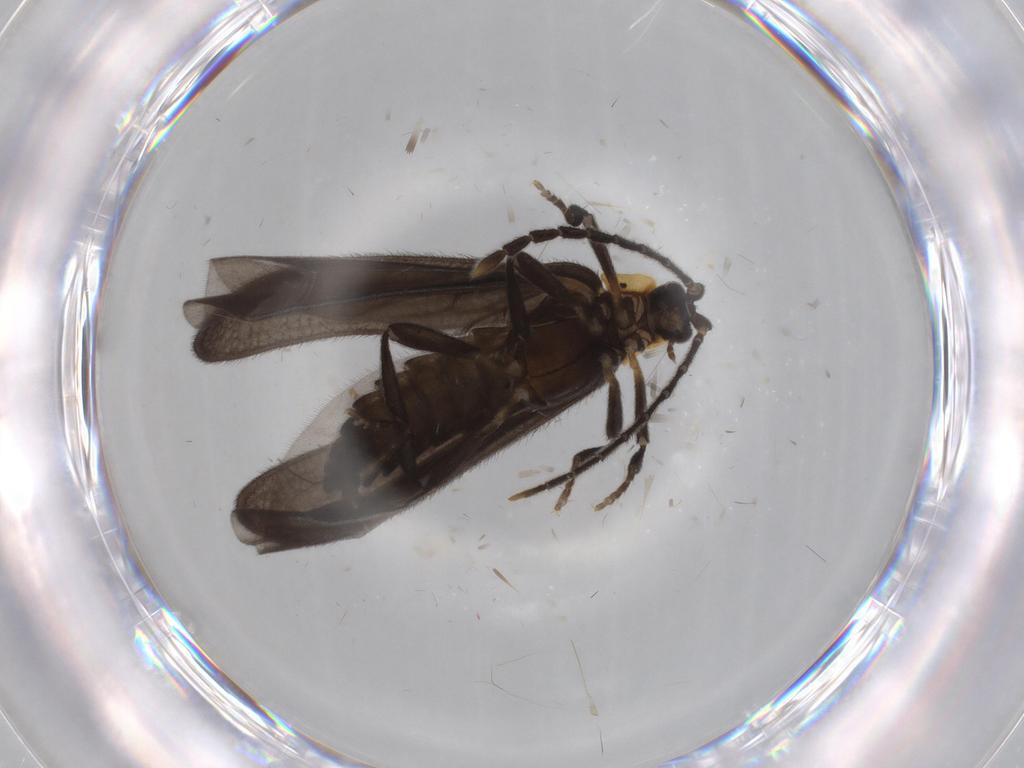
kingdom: Animalia
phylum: Arthropoda
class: Insecta
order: Coleoptera
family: Lycidae
